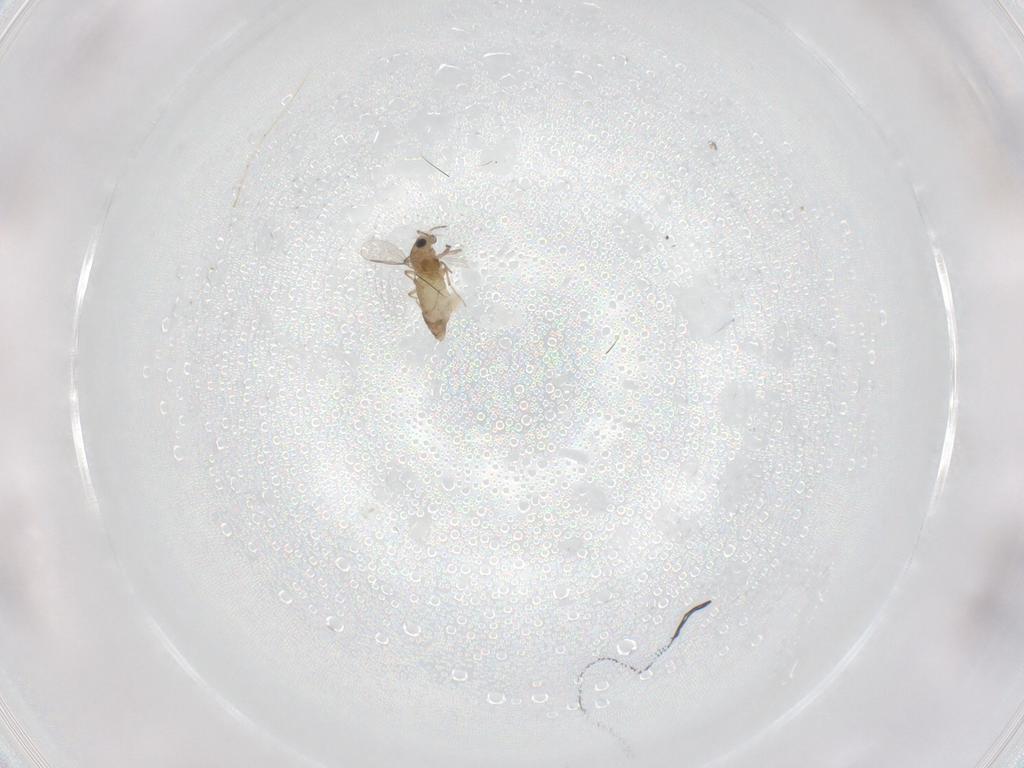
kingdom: Animalia
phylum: Arthropoda
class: Insecta
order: Diptera
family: Chironomidae
